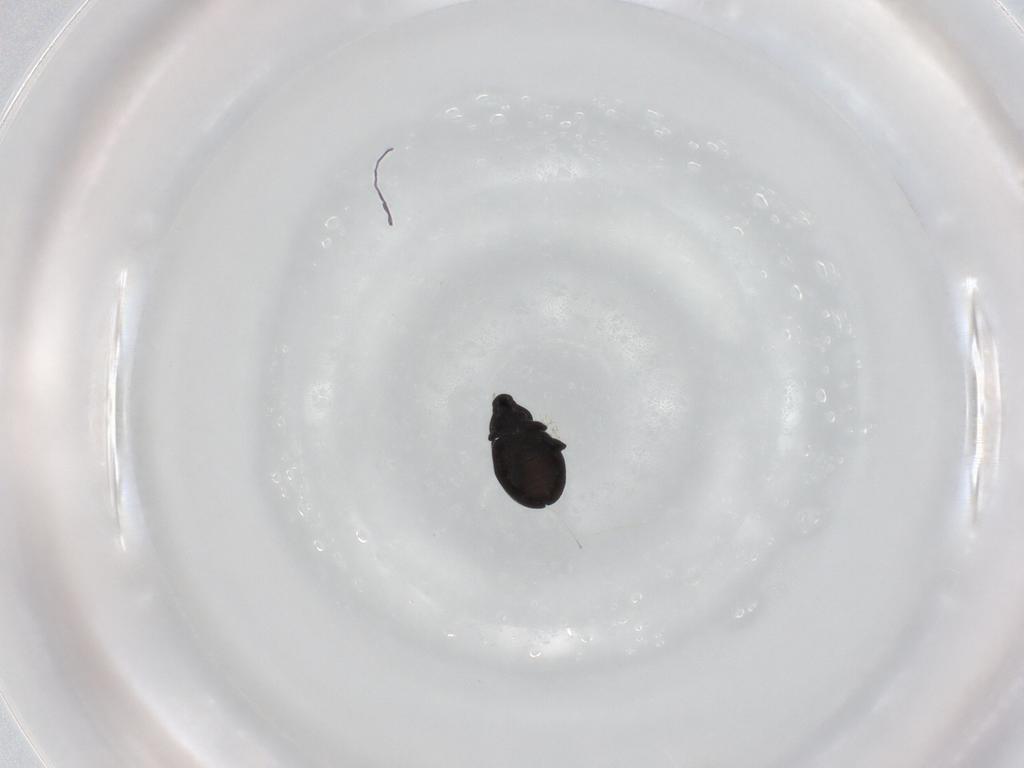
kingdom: Animalia
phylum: Arthropoda
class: Insecta
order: Coleoptera
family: Curculionidae
